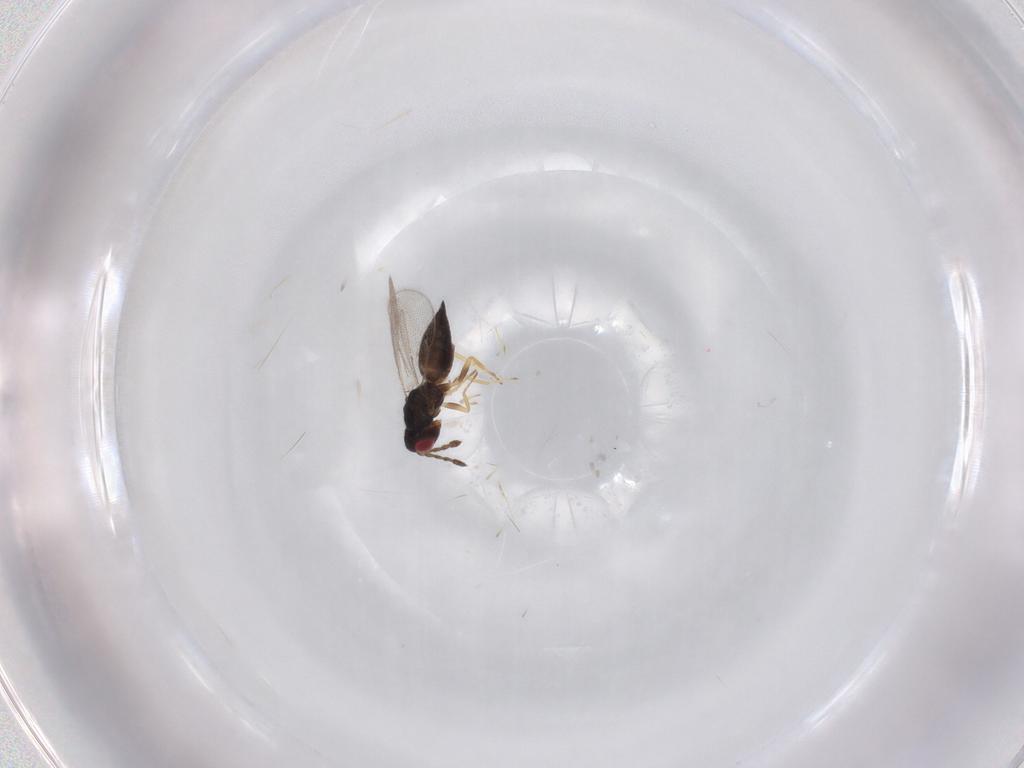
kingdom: Animalia
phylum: Arthropoda
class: Insecta
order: Hymenoptera
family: Eulophidae
